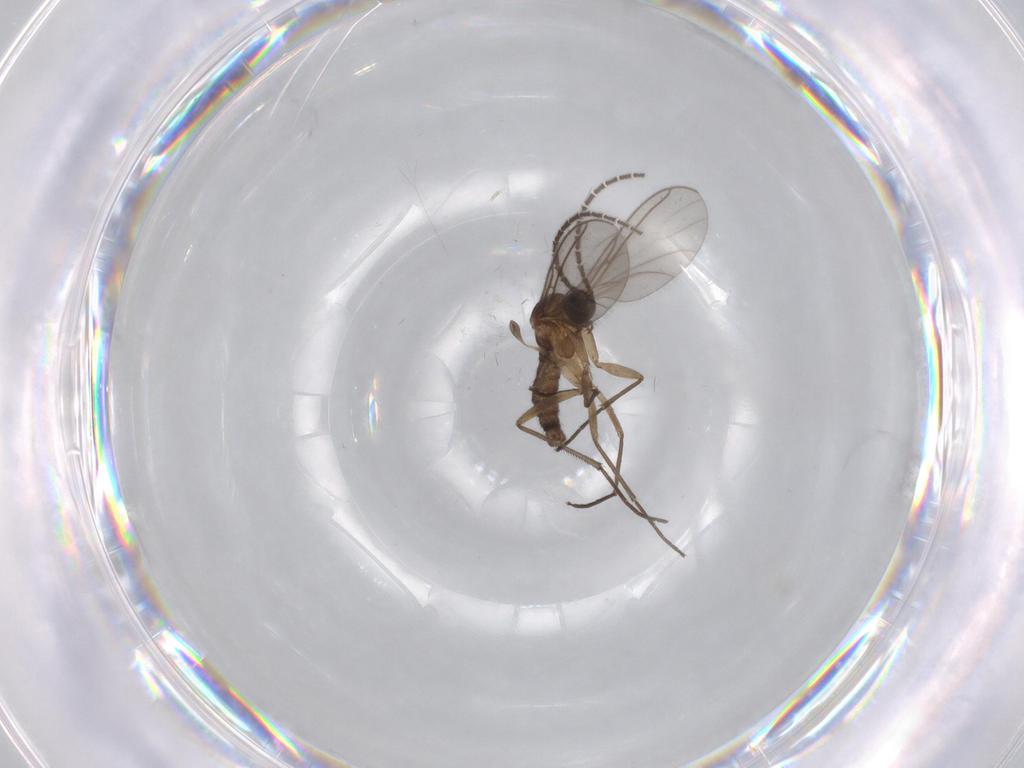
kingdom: Animalia
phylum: Arthropoda
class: Insecta
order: Diptera
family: Sciaridae
